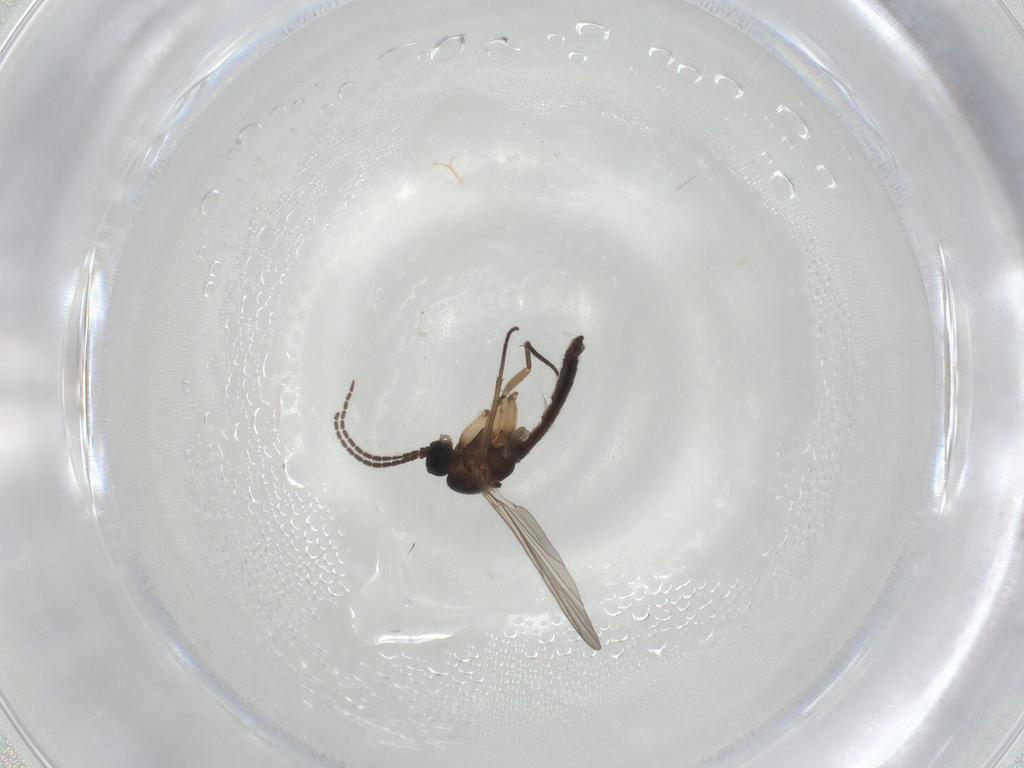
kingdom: Animalia
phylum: Arthropoda
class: Insecta
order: Diptera
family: Sciaridae
